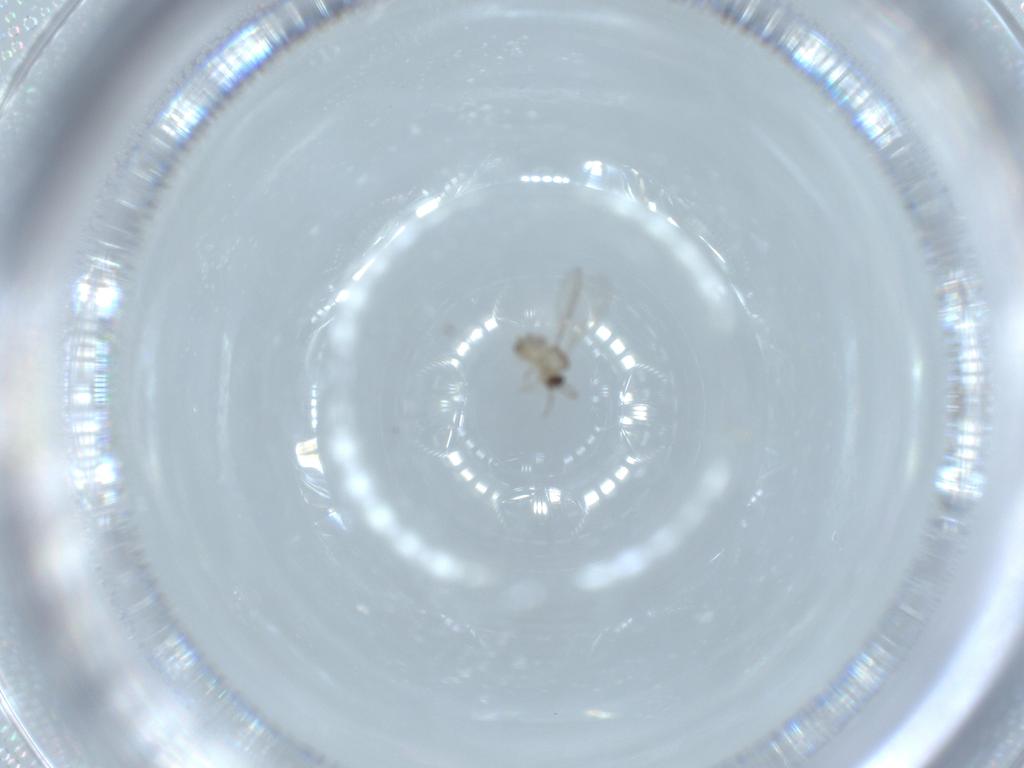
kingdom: Animalia
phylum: Arthropoda
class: Insecta
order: Diptera
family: Cecidomyiidae
